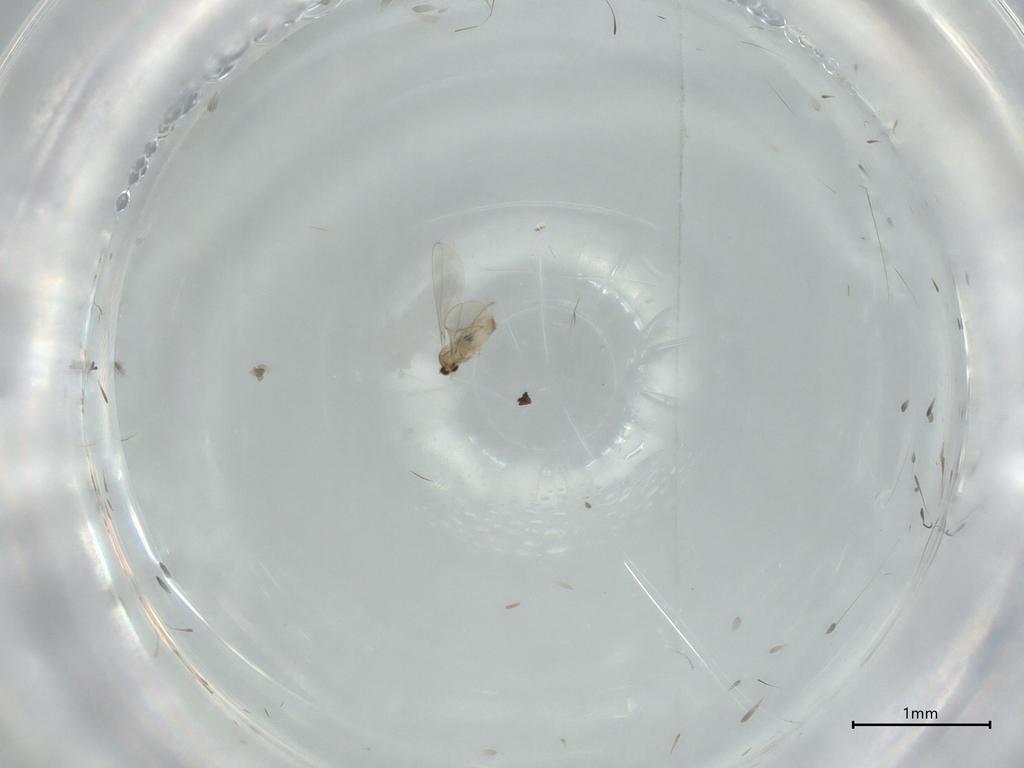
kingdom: Animalia
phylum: Arthropoda
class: Insecta
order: Diptera
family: Cecidomyiidae
